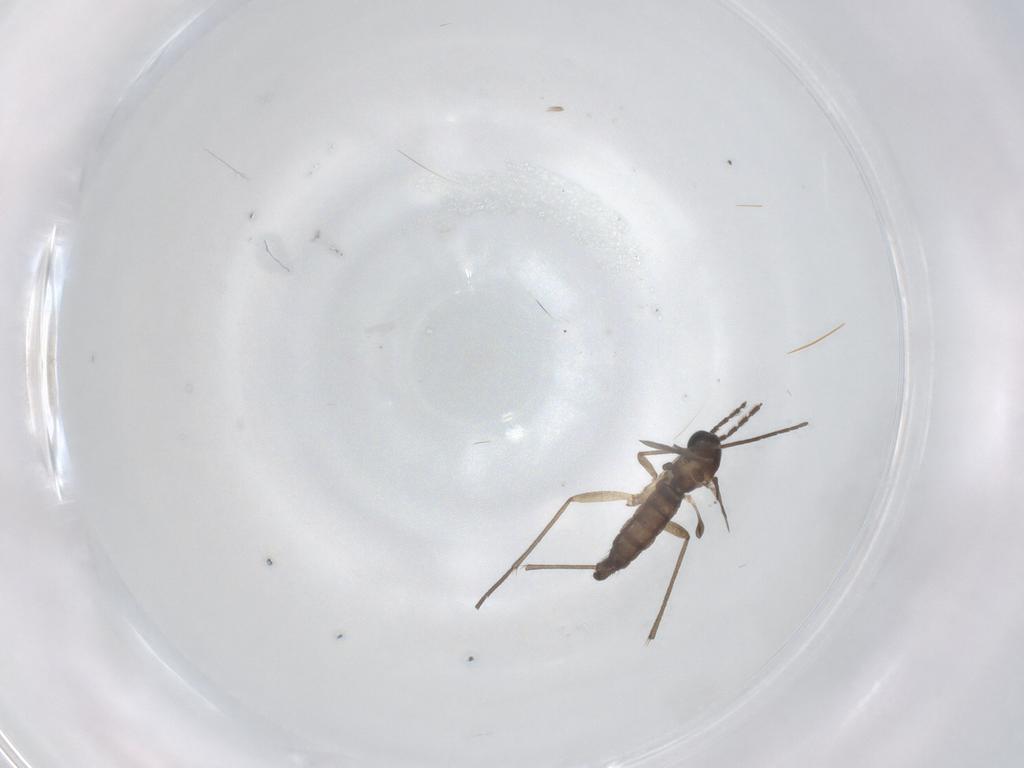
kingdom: Animalia
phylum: Arthropoda
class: Insecta
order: Diptera
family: Sciaridae
